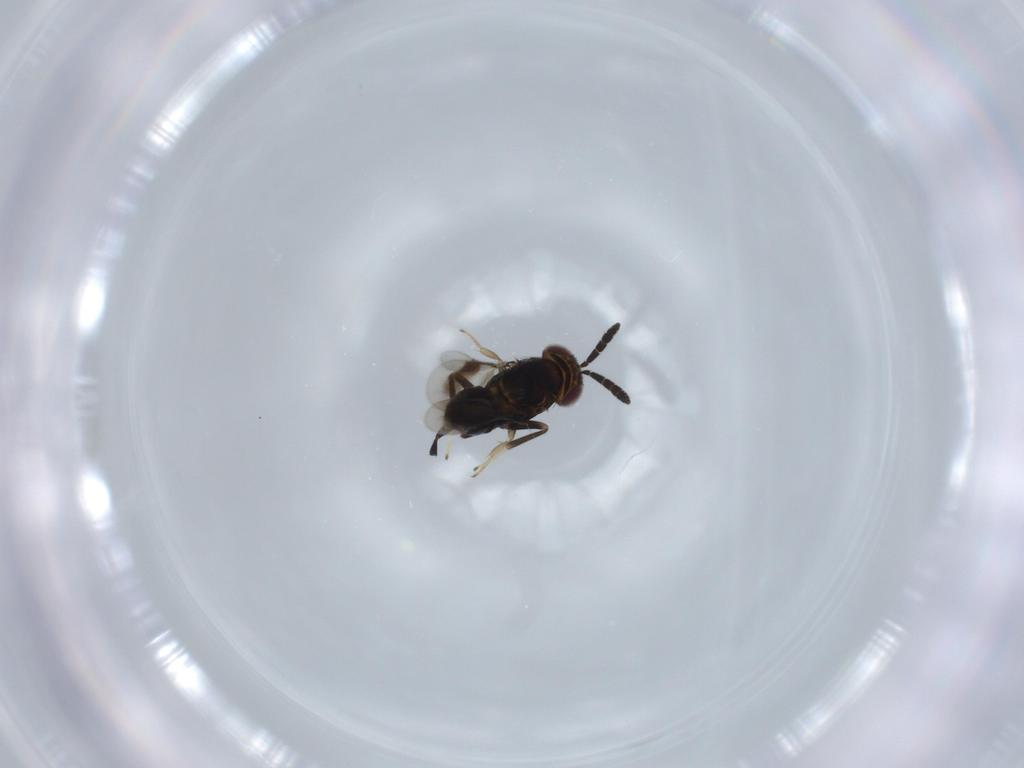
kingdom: Animalia
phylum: Arthropoda
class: Insecta
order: Hymenoptera
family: Aphelinidae
